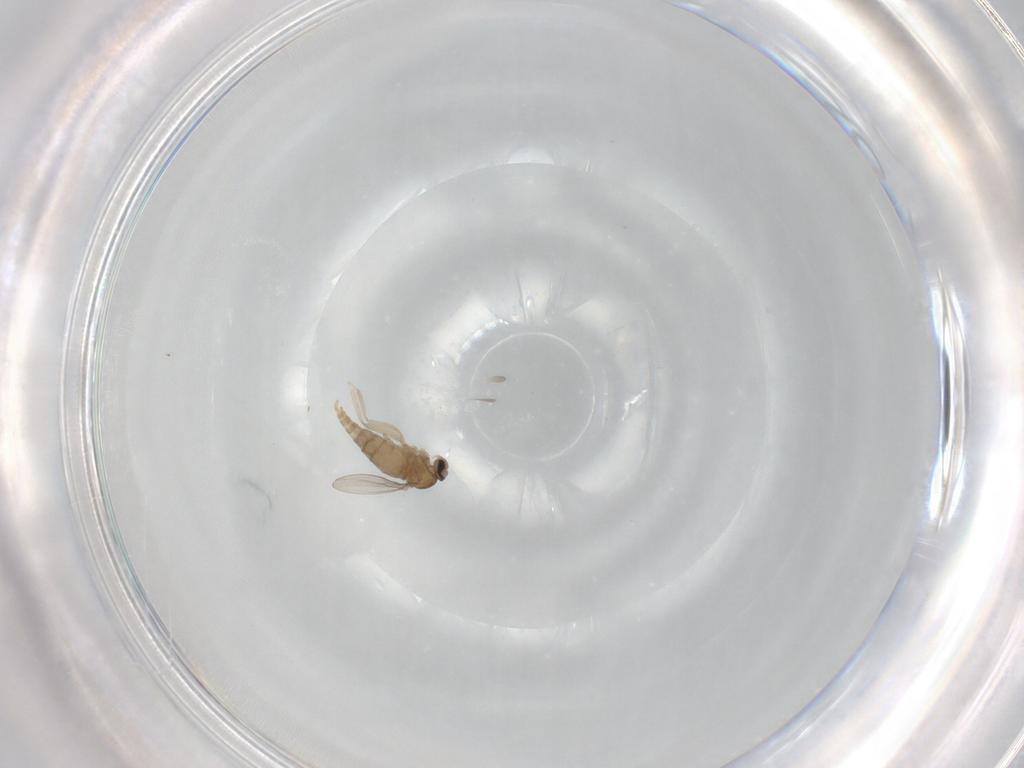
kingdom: Animalia
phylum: Arthropoda
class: Insecta
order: Diptera
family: Cecidomyiidae
